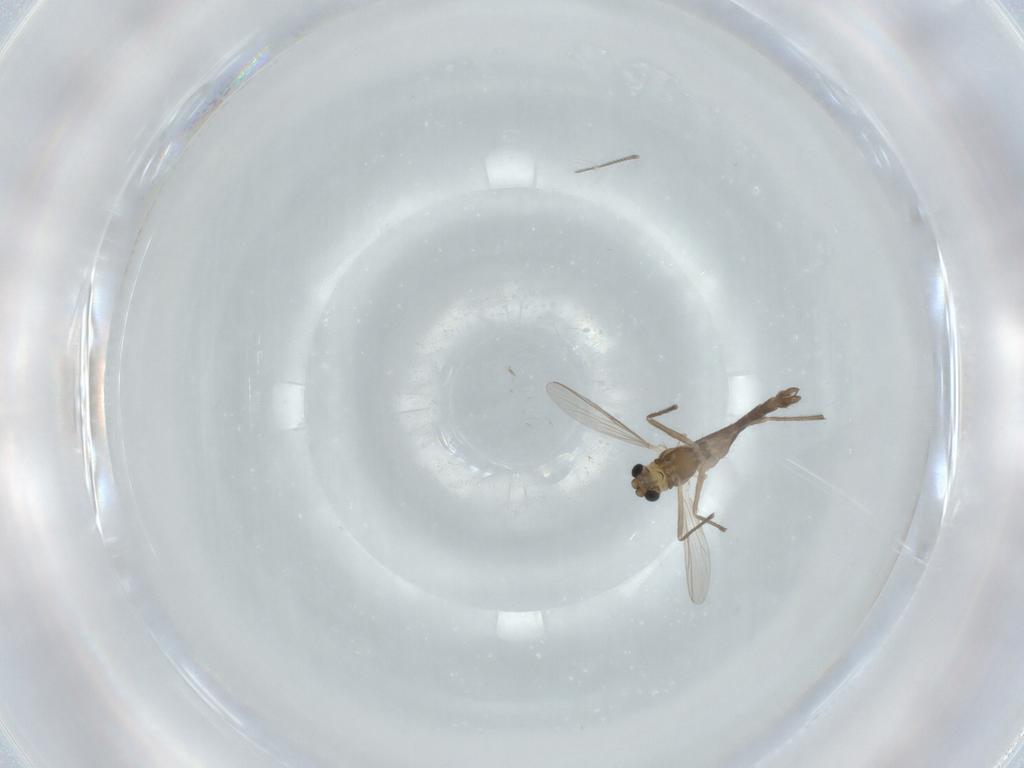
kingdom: Animalia
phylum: Arthropoda
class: Insecta
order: Diptera
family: Chironomidae
